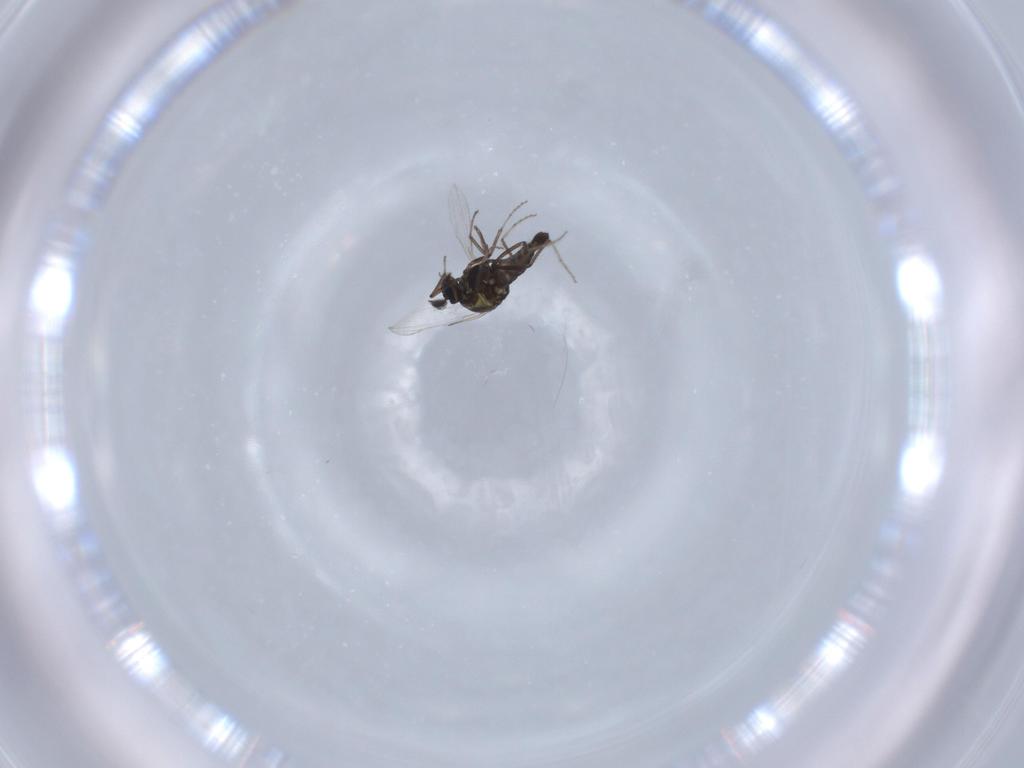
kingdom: Animalia
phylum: Arthropoda
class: Insecta
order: Diptera
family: Ceratopogonidae
